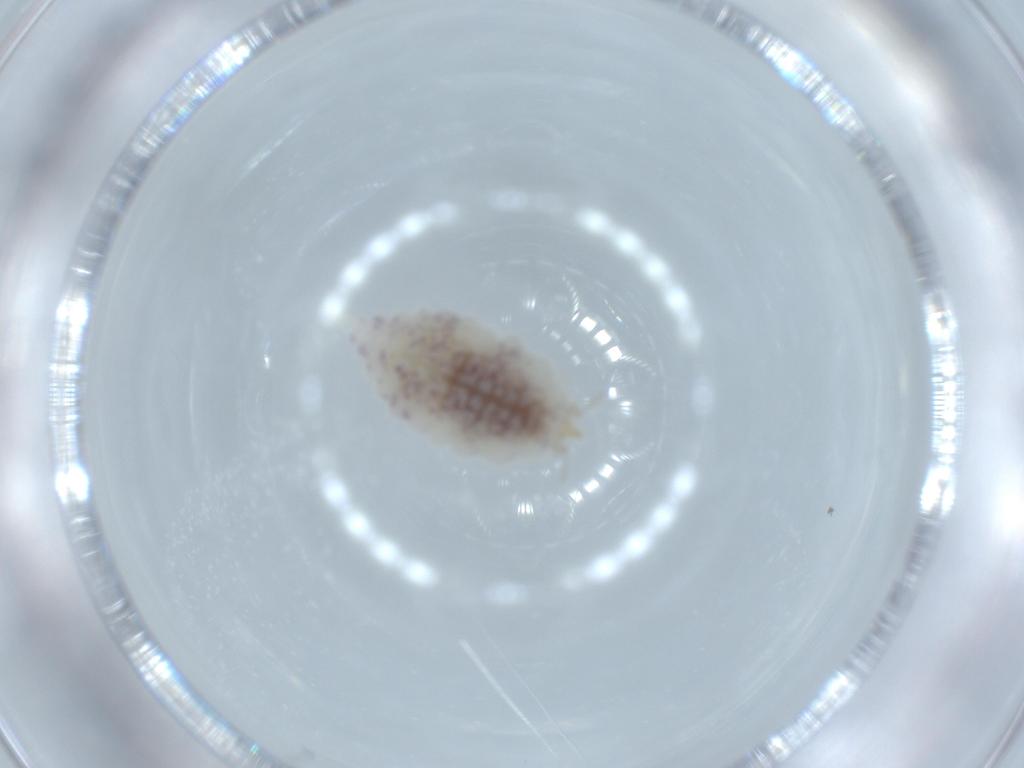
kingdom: Animalia
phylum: Arthropoda
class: Insecta
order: Neuroptera
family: Coniopterygidae
